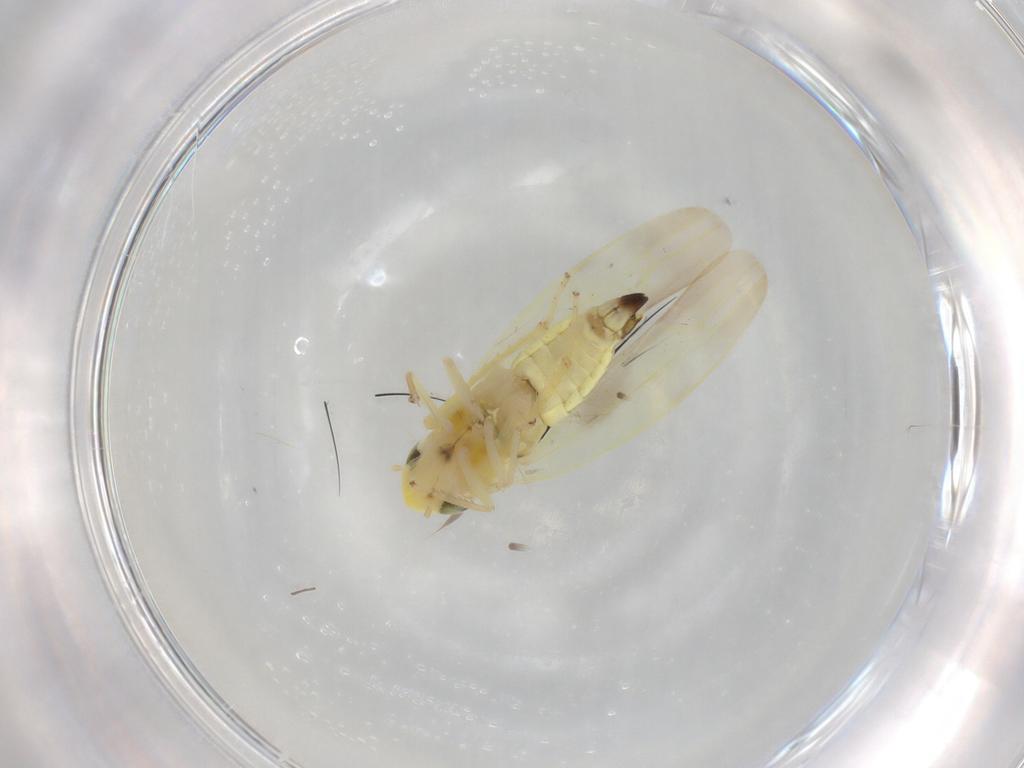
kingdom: Animalia
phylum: Arthropoda
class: Insecta
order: Hemiptera
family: Cicadellidae
